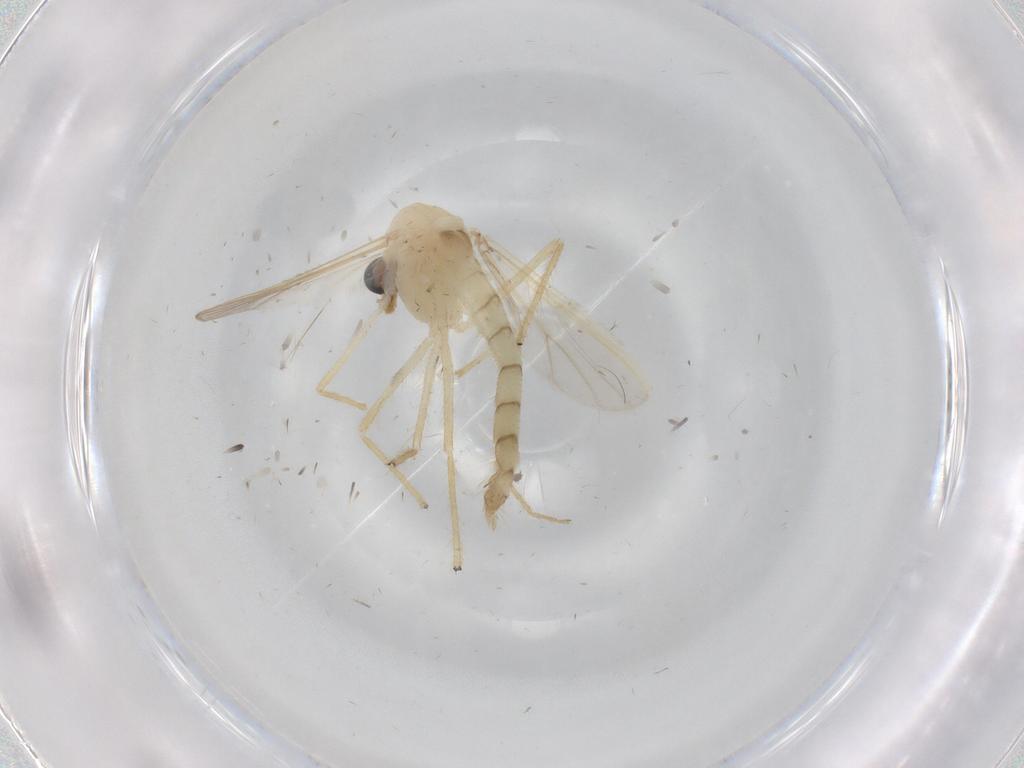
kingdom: Animalia
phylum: Arthropoda
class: Insecta
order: Diptera
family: Chironomidae
